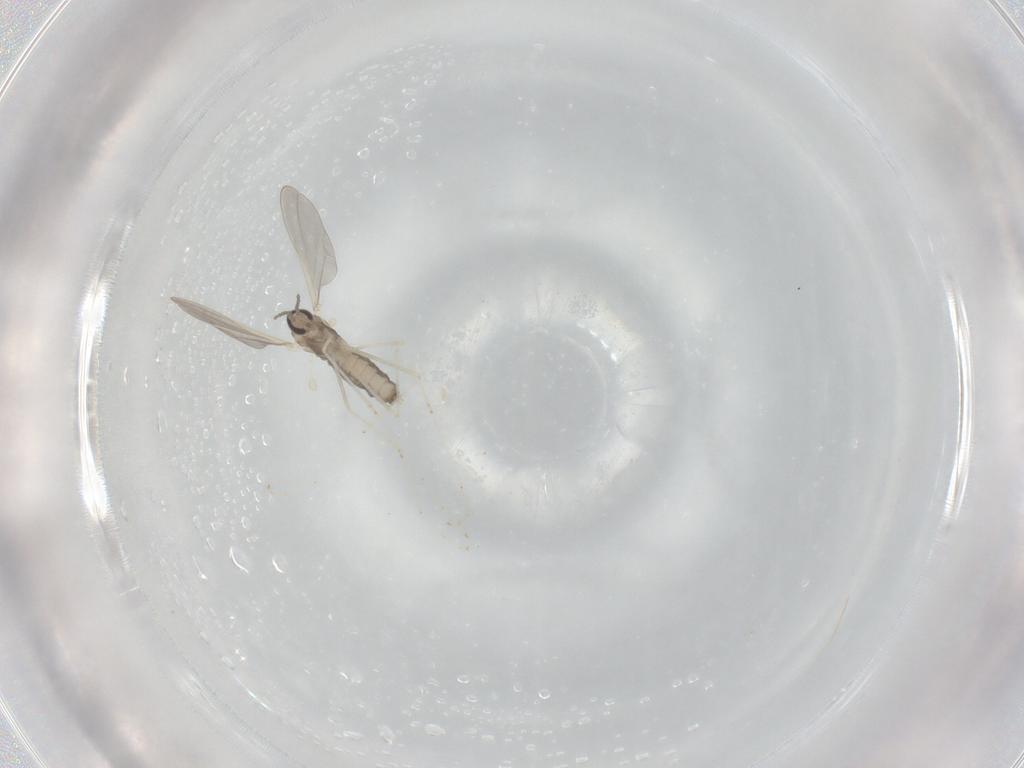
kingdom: Animalia
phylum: Arthropoda
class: Insecta
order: Diptera
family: Cecidomyiidae
